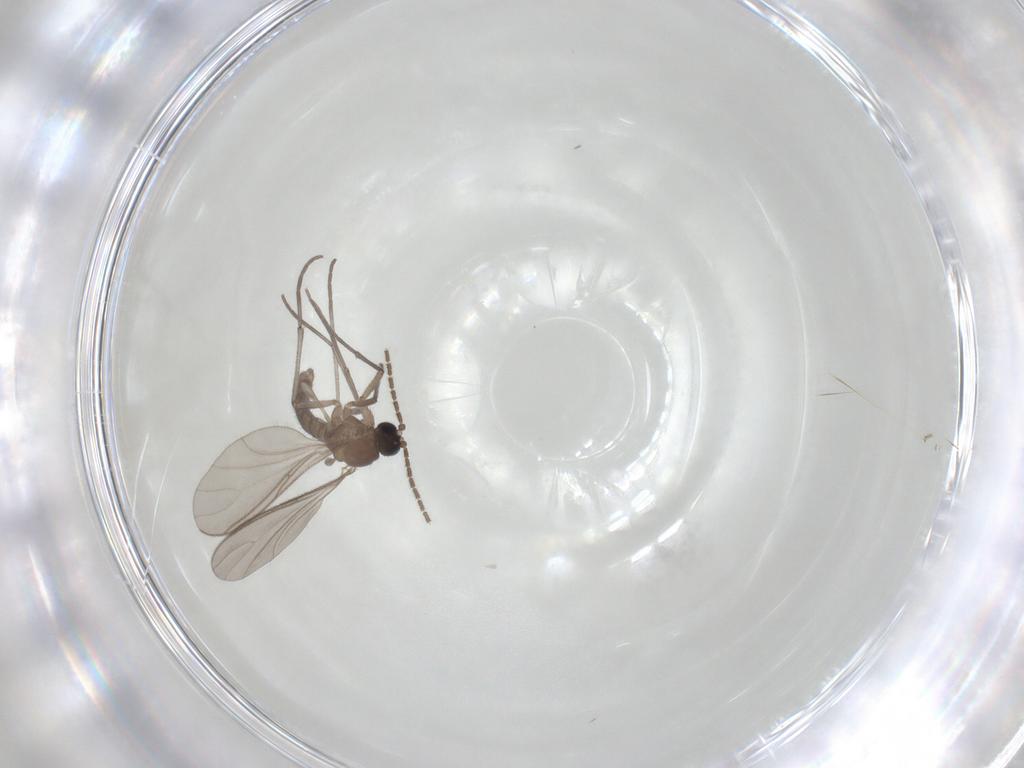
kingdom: Animalia
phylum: Arthropoda
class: Insecta
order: Diptera
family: Sciaridae
